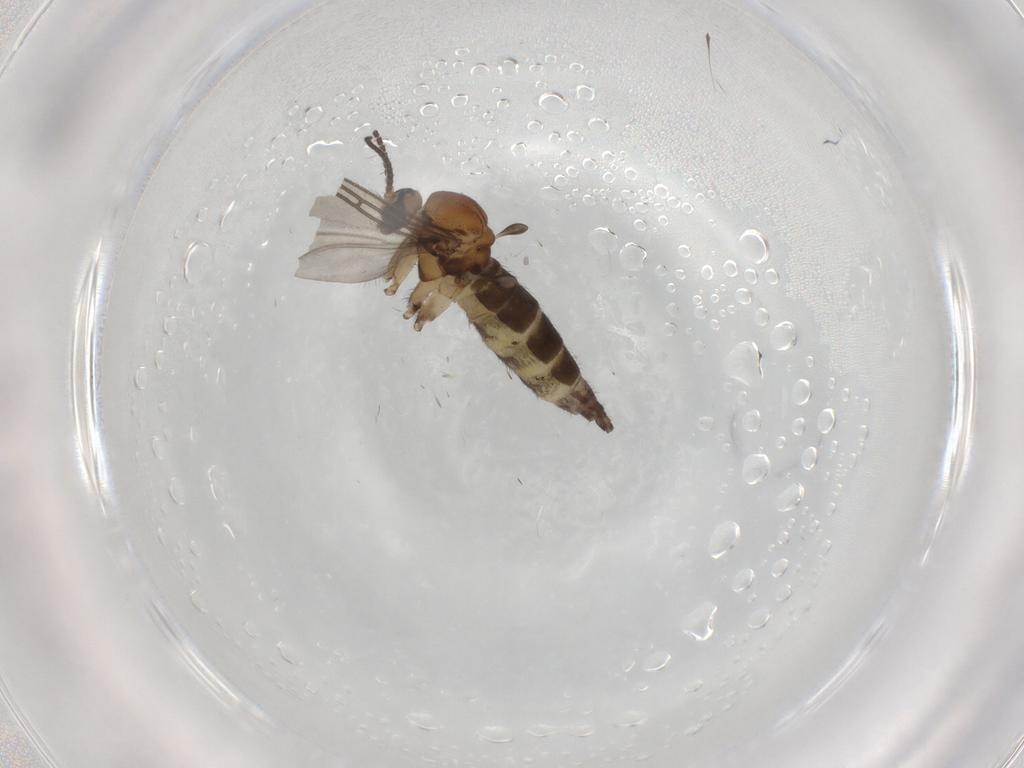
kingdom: Animalia
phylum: Arthropoda
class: Insecta
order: Diptera
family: Sciaridae
